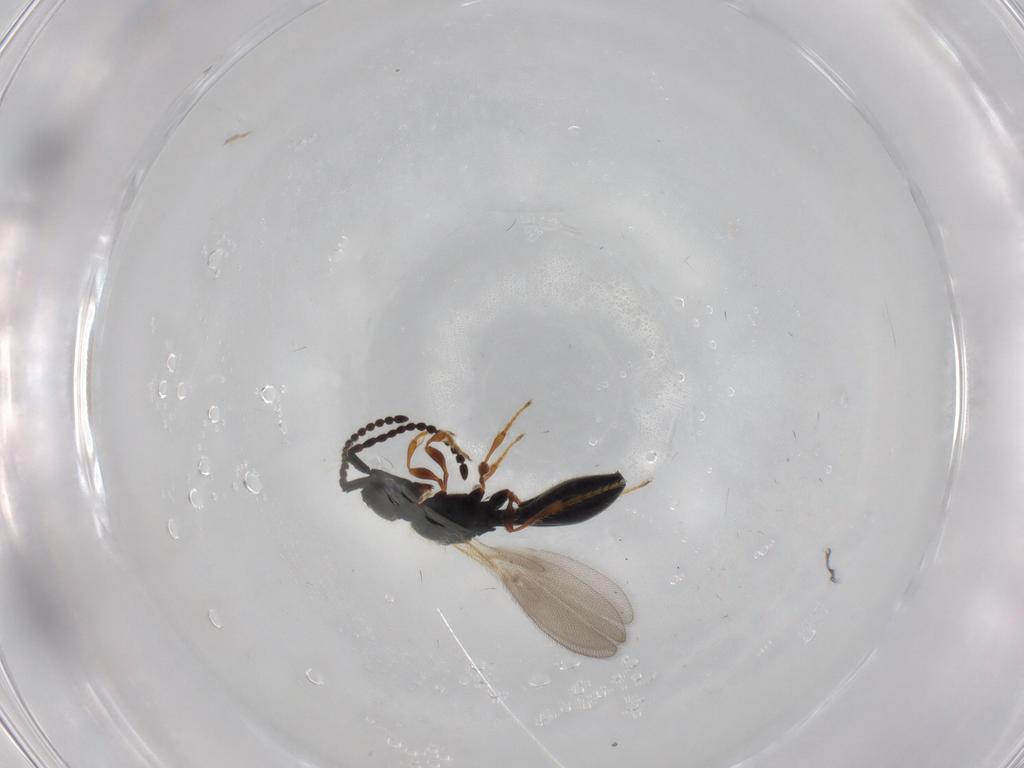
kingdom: Animalia
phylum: Arthropoda
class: Insecta
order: Hymenoptera
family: Diapriidae
